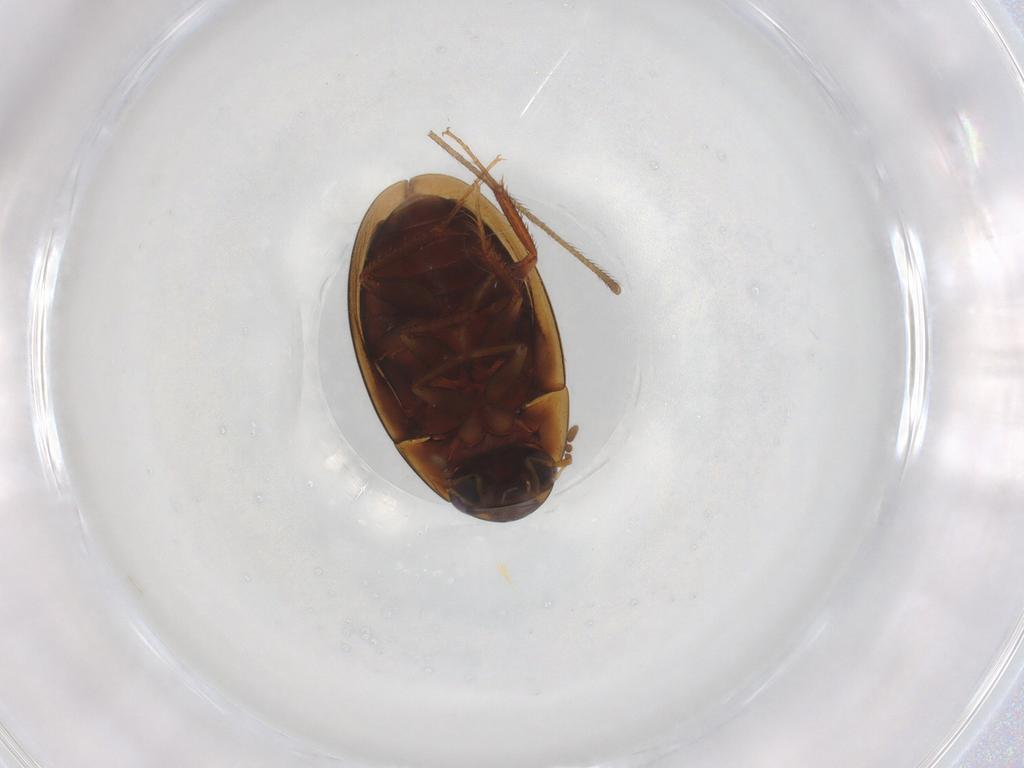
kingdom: Animalia
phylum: Arthropoda
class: Insecta
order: Coleoptera
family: Hydrophilidae
